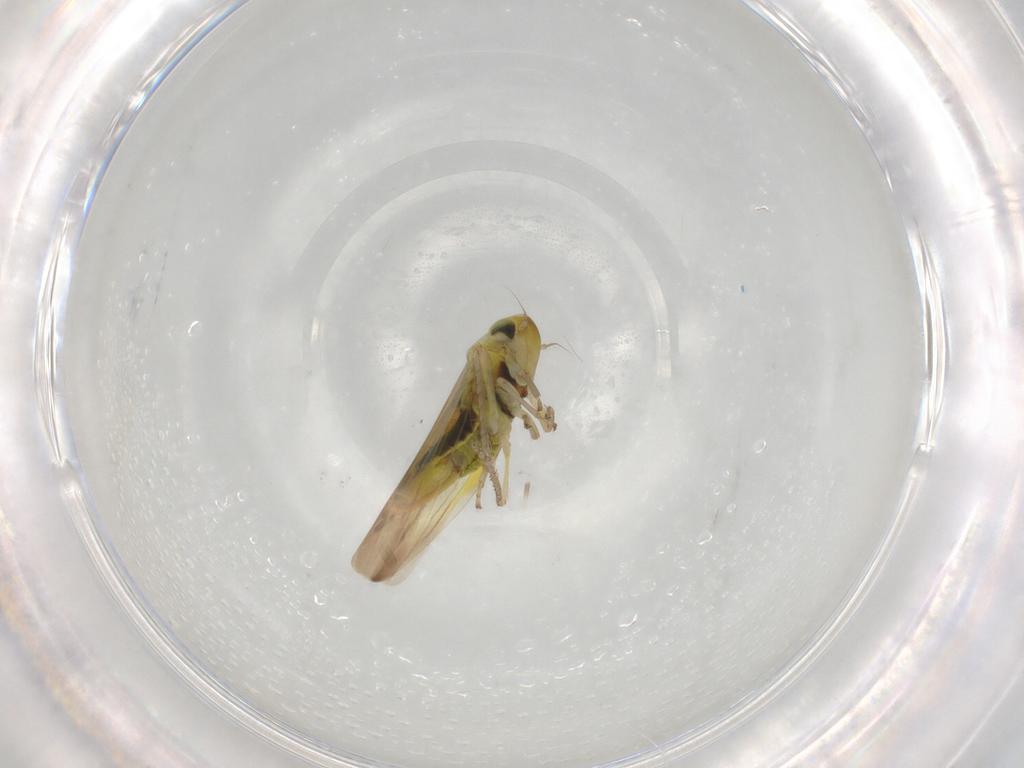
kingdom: Animalia
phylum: Arthropoda
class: Insecta
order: Hemiptera
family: Cicadellidae
